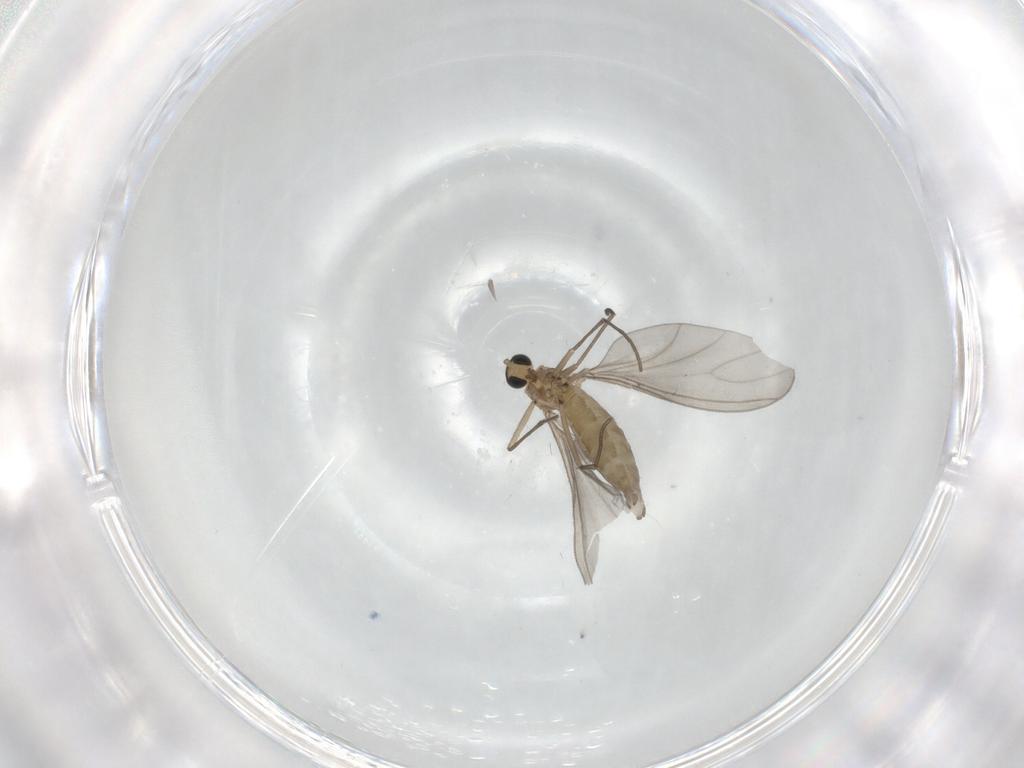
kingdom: Animalia
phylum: Arthropoda
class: Insecta
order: Diptera
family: Sciaridae
